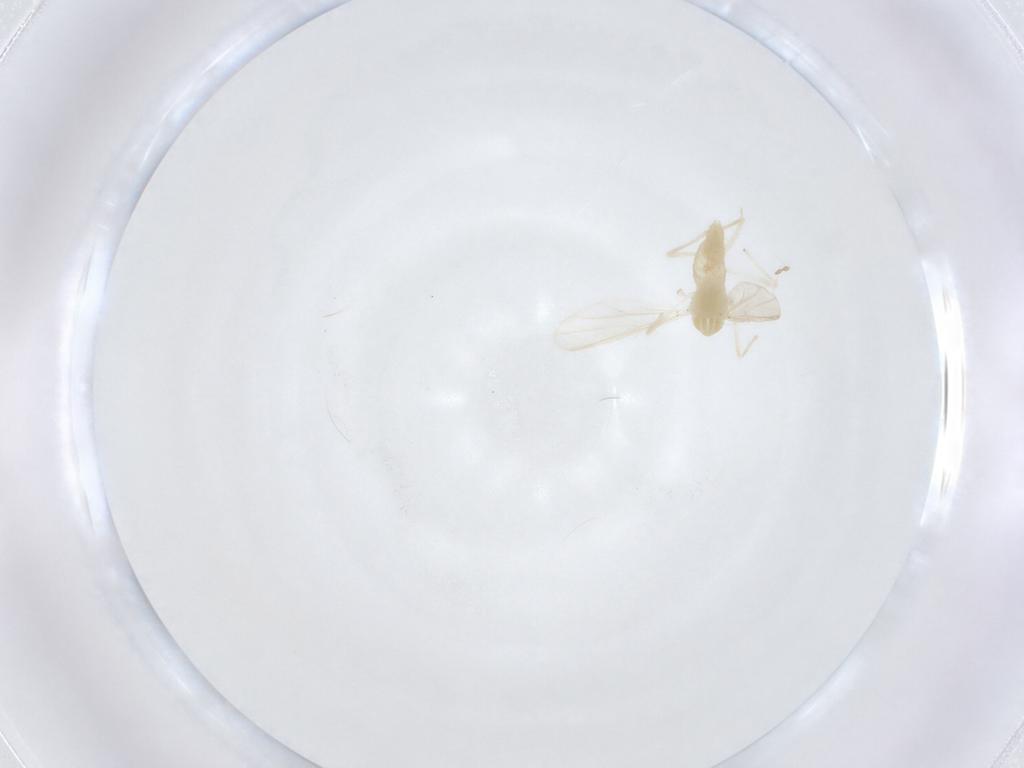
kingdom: Animalia
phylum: Arthropoda
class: Insecta
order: Diptera
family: Chironomidae
